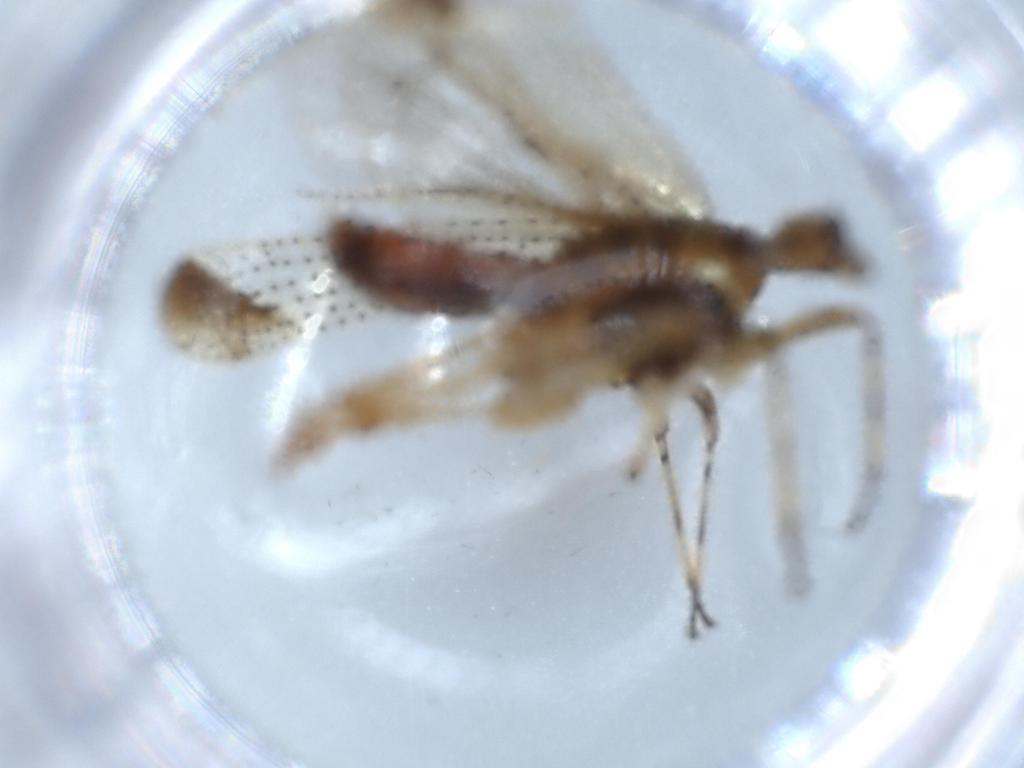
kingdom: Animalia
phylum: Arthropoda
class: Insecta
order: Hemiptera
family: Delphacidae
